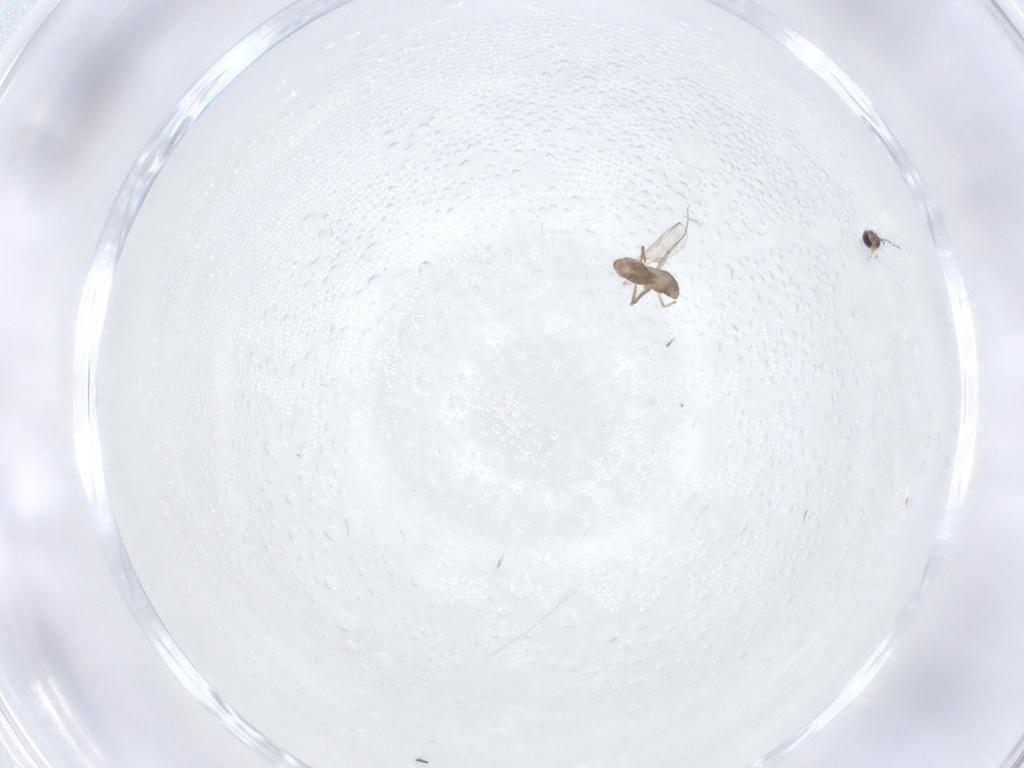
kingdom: Animalia
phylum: Arthropoda
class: Insecta
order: Diptera
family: Chironomidae
